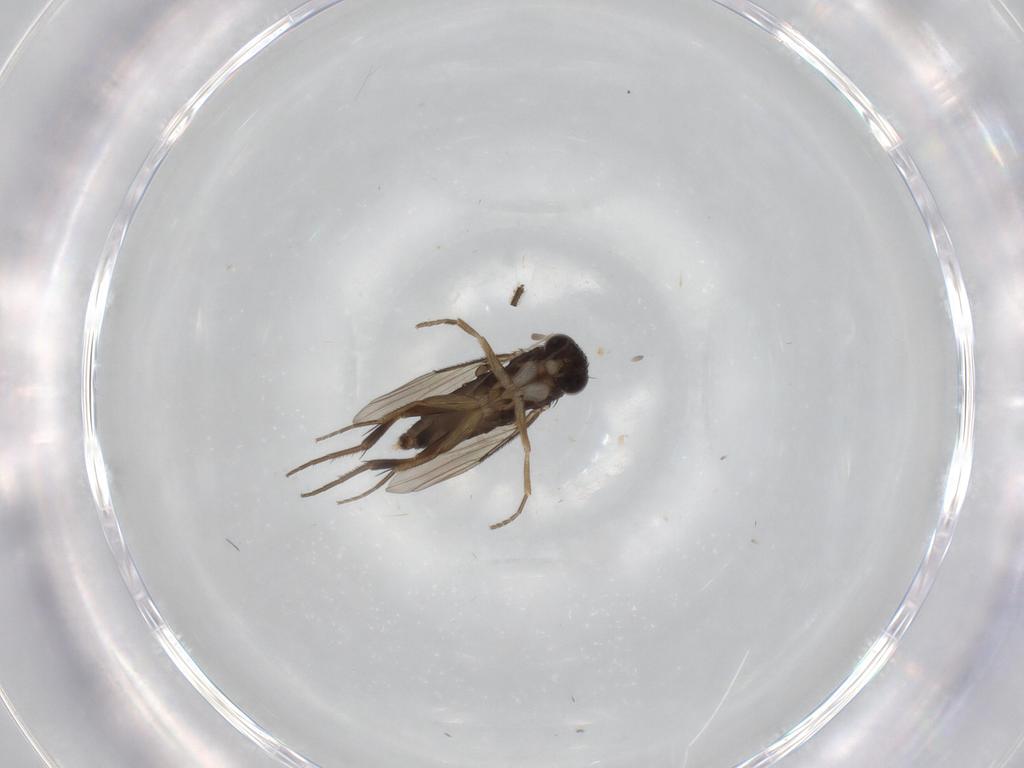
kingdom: Animalia
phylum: Arthropoda
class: Insecta
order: Diptera
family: Phoridae
